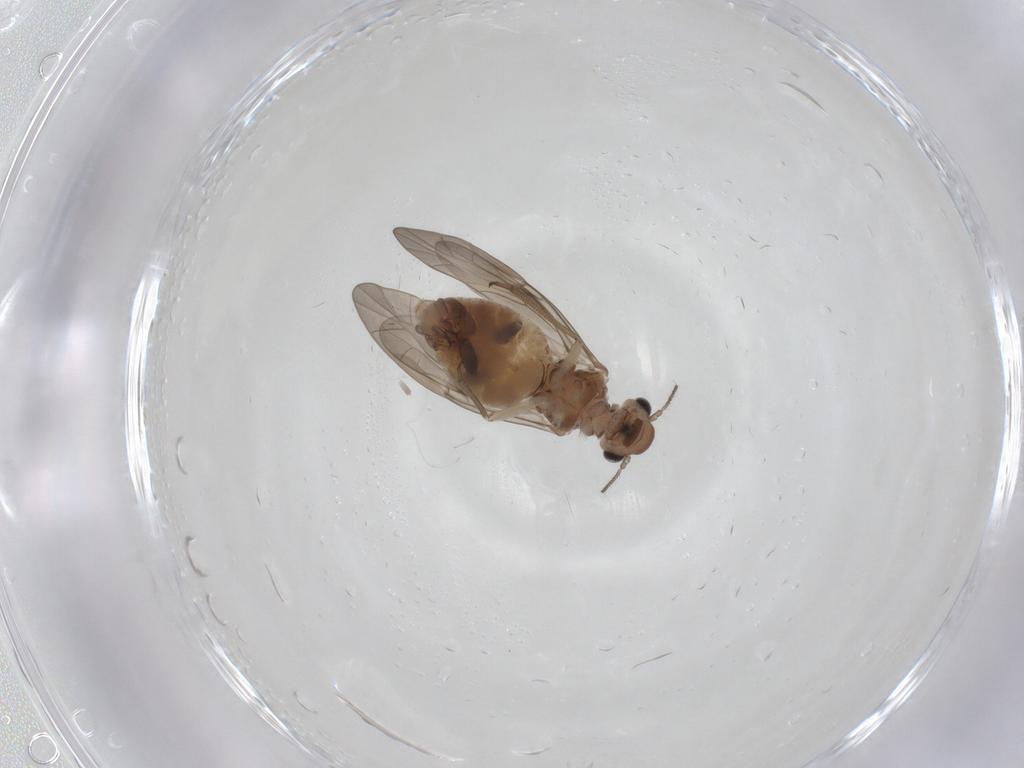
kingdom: Animalia
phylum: Arthropoda
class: Insecta
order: Psocodea
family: Peripsocidae
